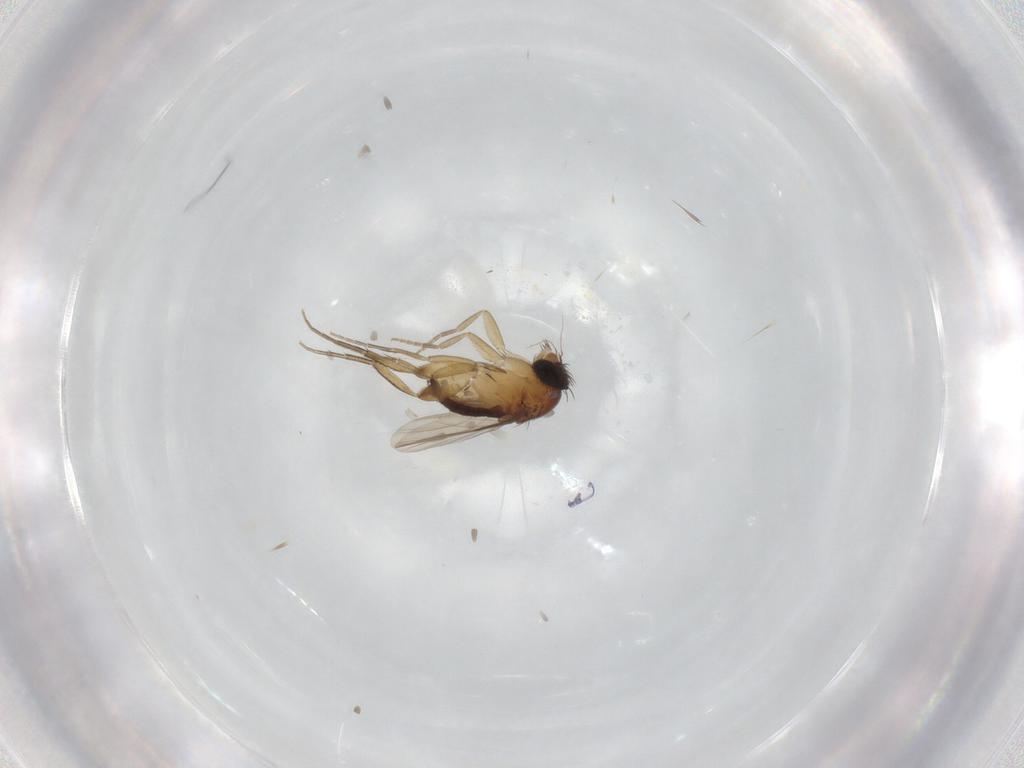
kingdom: Animalia
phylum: Arthropoda
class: Insecta
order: Diptera
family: Phoridae
